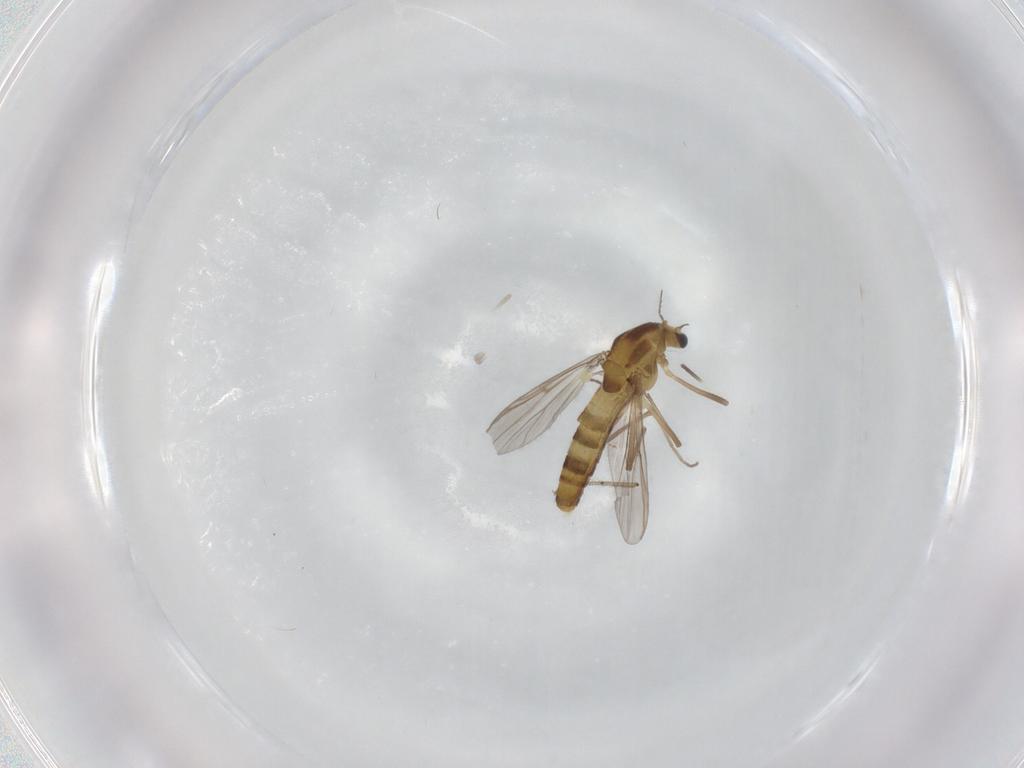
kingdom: Animalia
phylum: Arthropoda
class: Insecta
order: Diptera
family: Chironomidae
